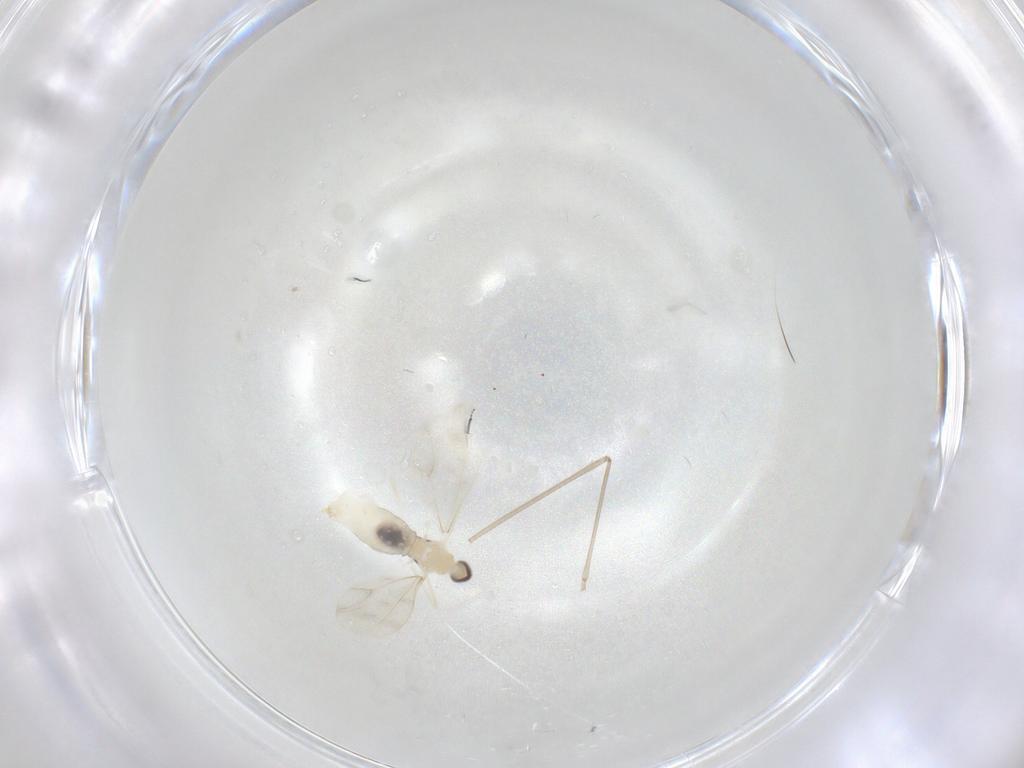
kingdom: Animalia
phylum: Arthropoda
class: Insecta
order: Diptera
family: Cecidomyiidae
